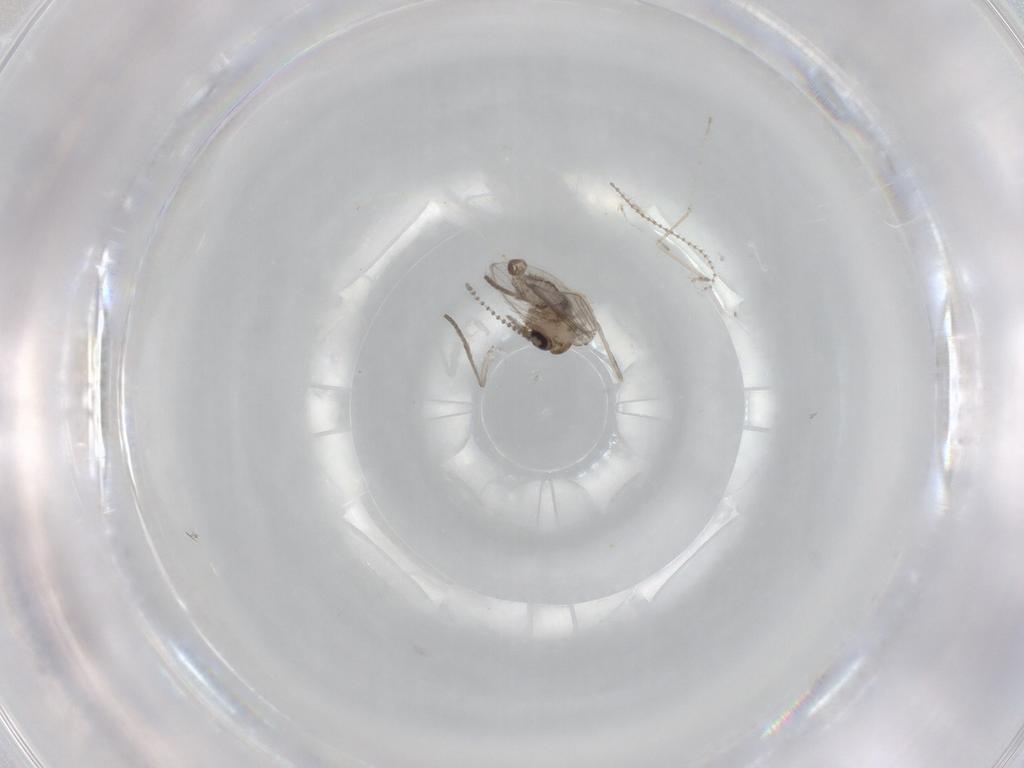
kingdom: Animalia
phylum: Arthropoda
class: Insecta
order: Diptera
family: Psychodidae
